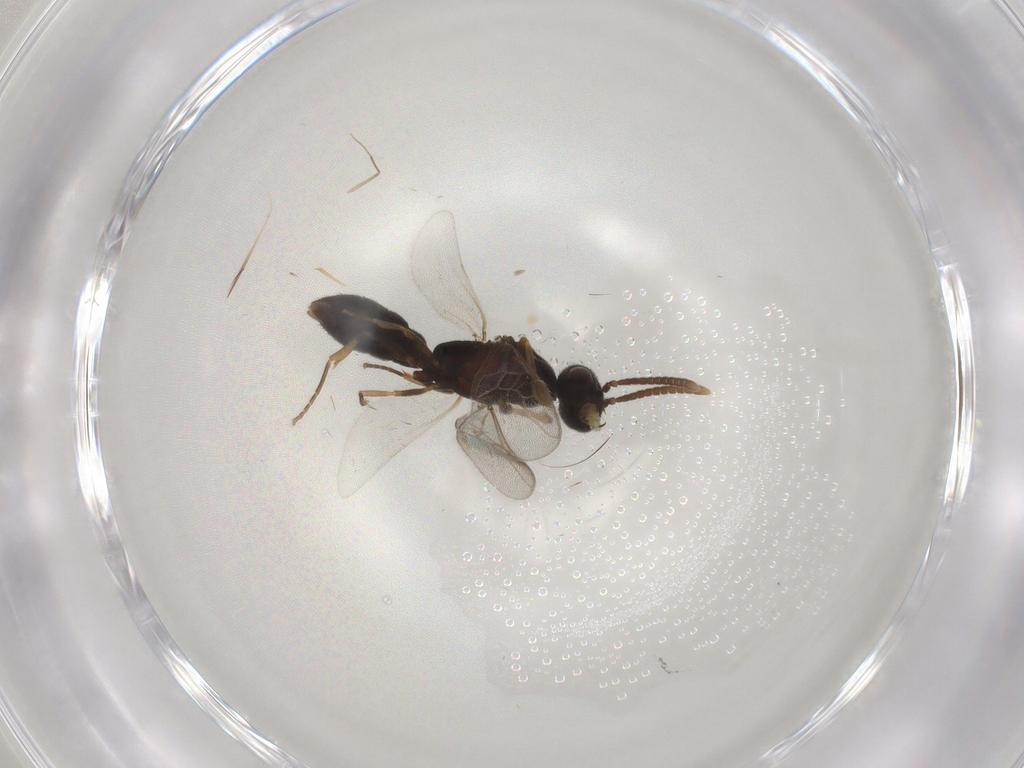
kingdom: Animalia
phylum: Arthropoda
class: Insecta
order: Hymenoptera
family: Formicidae
